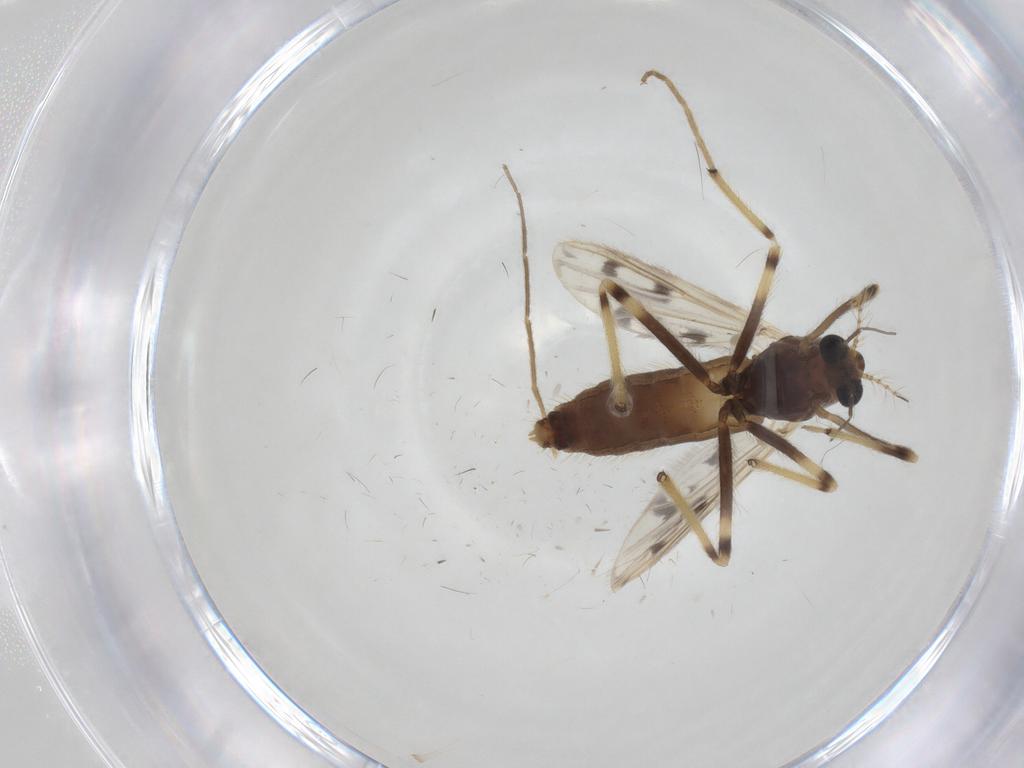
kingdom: Animalia
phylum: Arthropoda
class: Insecta
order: Diptera
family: Chironomidae
